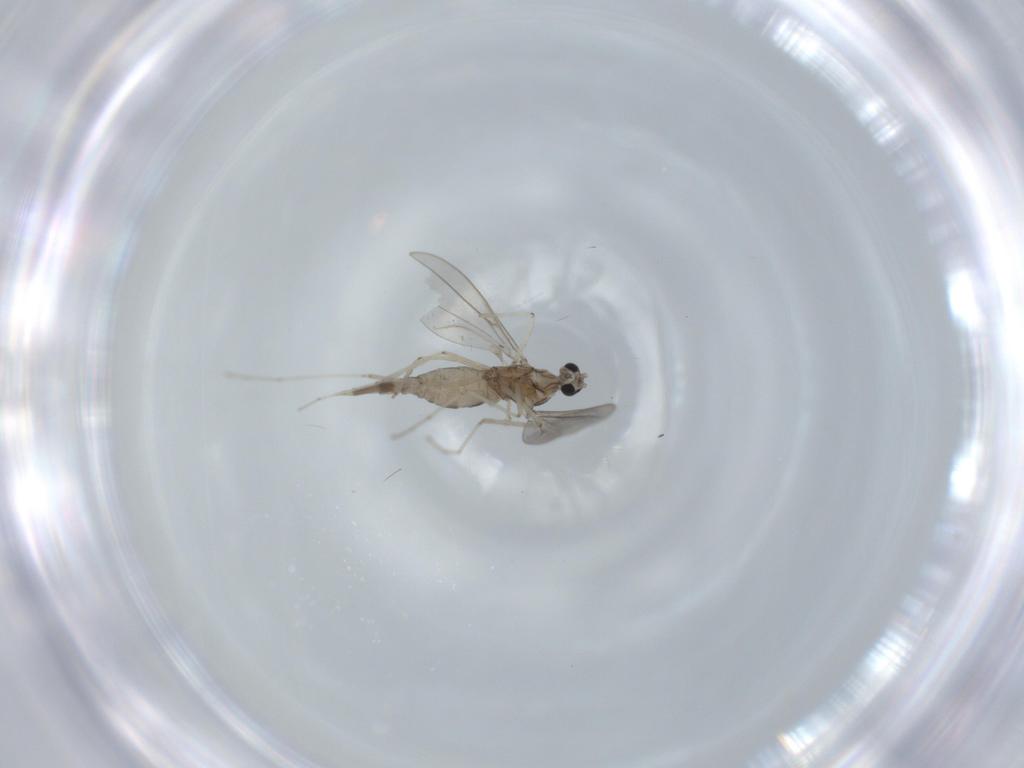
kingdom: Animalia
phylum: Arthropoda
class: Insecta
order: Diptera
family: Cecidomyiidae
